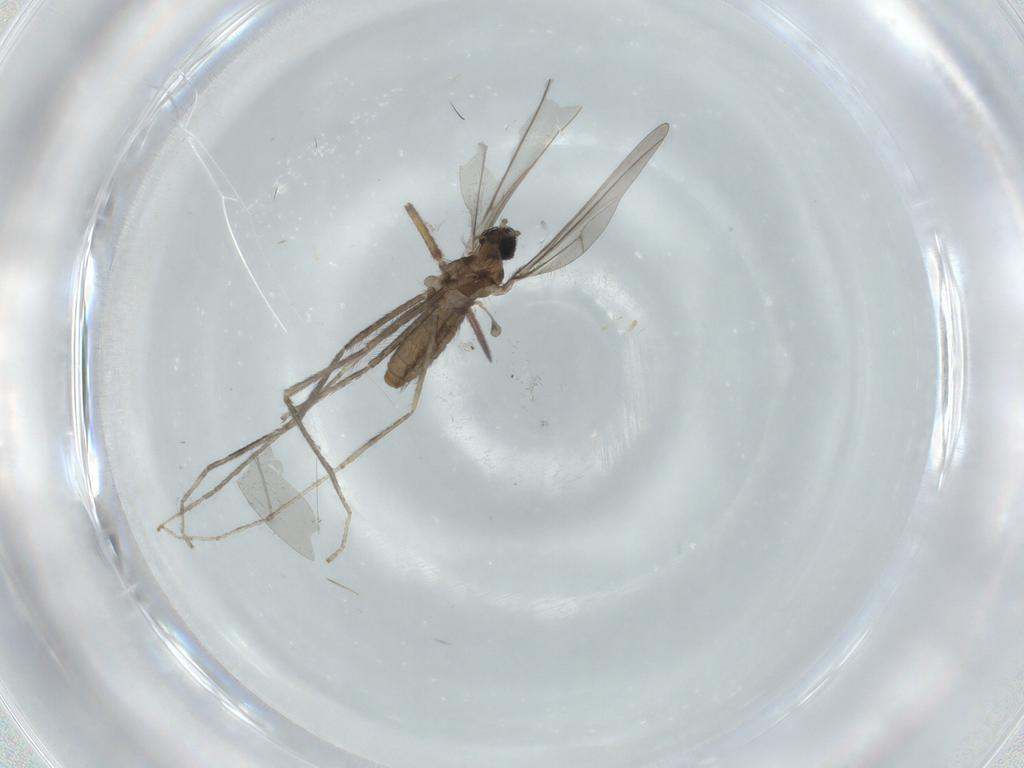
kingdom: Animalia
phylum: Arthropoda
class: Insecta
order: Diptera
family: Cecidomyiidae
